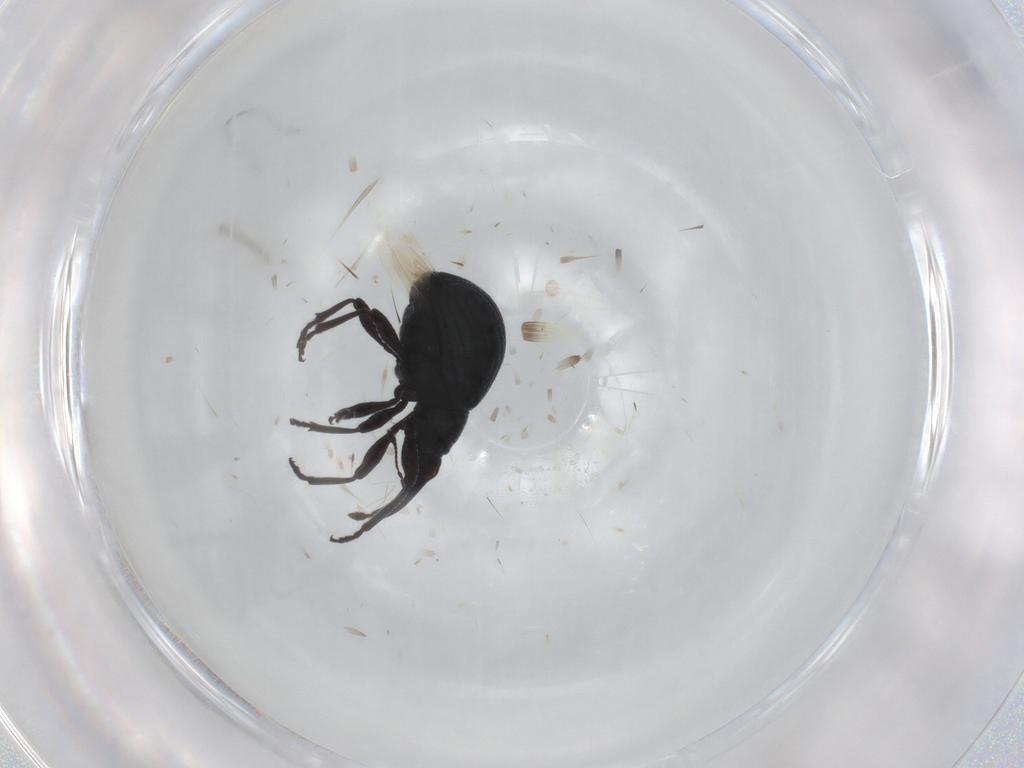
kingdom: Animalia
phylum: Arthropoda
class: Insecta
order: Coleoptera
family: Brentidae
